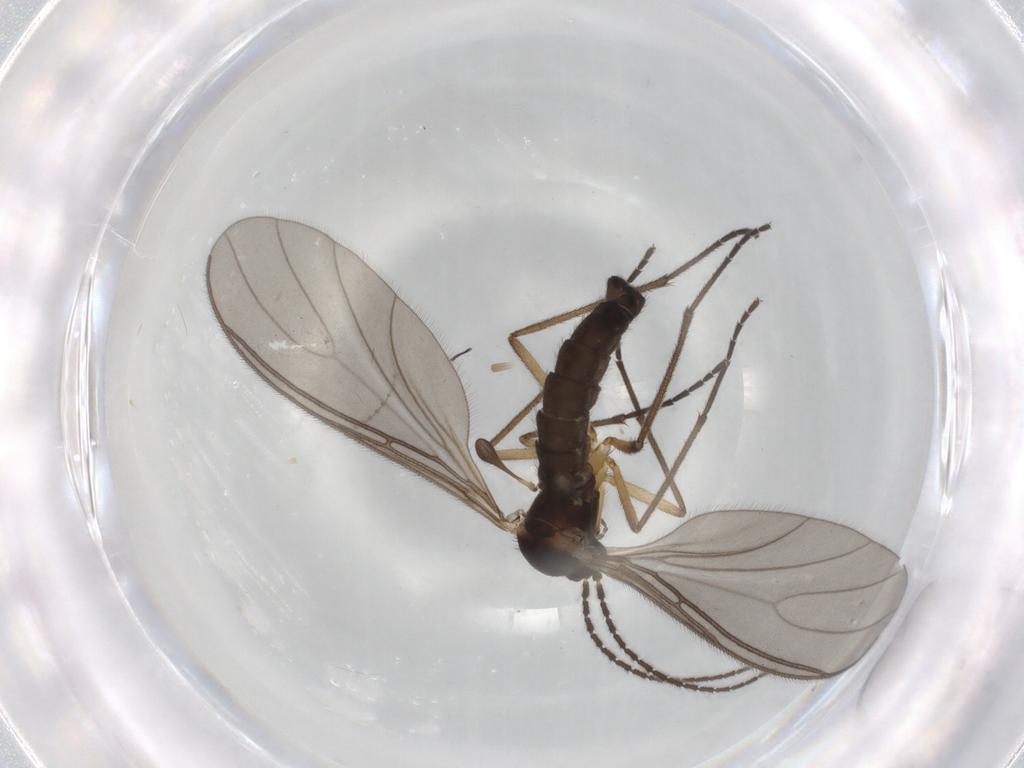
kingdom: Animalia
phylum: Arthropoda
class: Insecta
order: Diptera
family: Sciaridae
